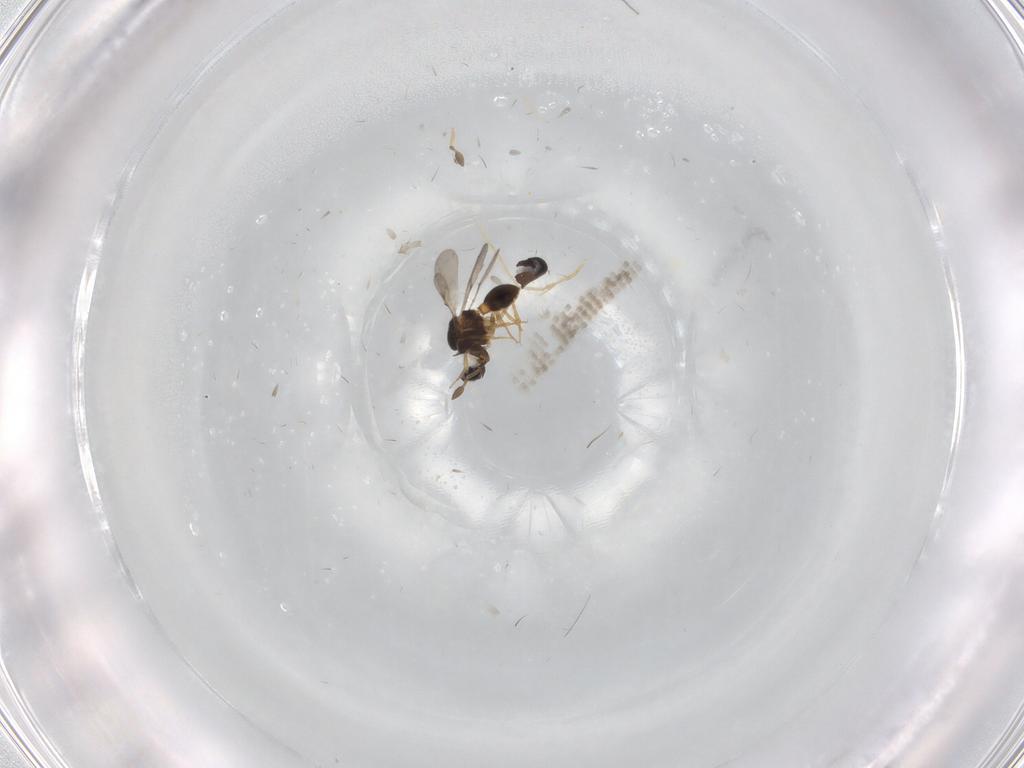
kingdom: Animalia
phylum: Arthropoda
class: Insecta
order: Hymenoptera
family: Scelionidae
